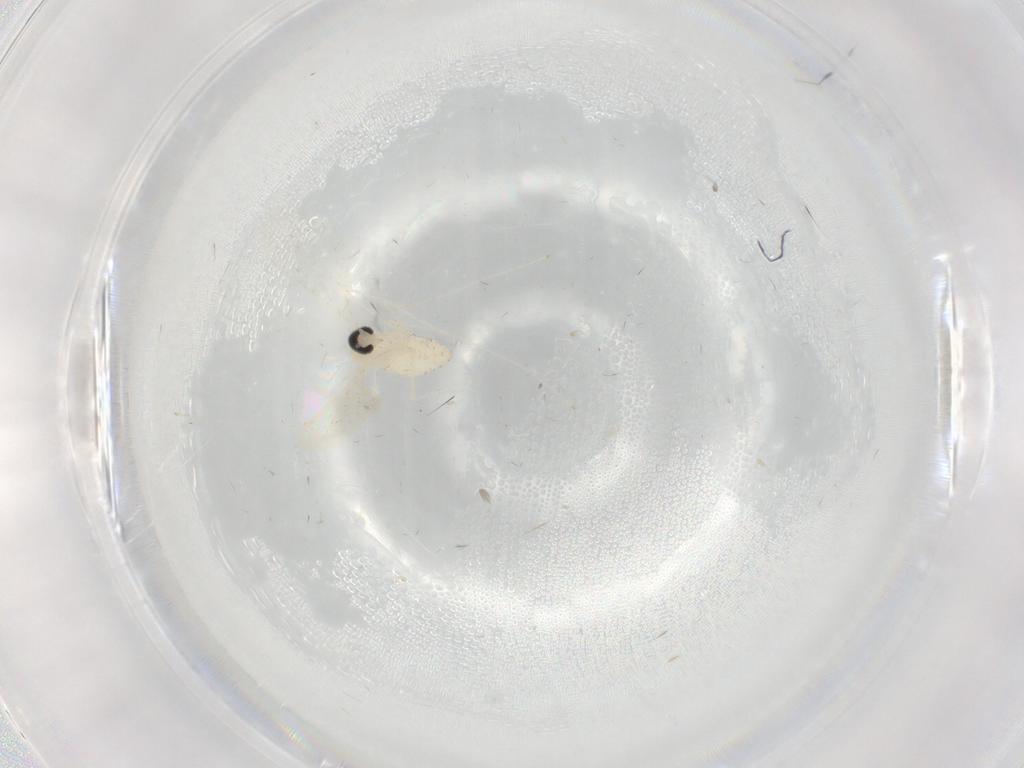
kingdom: Animalia
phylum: Arthropoda
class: Insecta
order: Diptera
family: Cecidomyiidae
